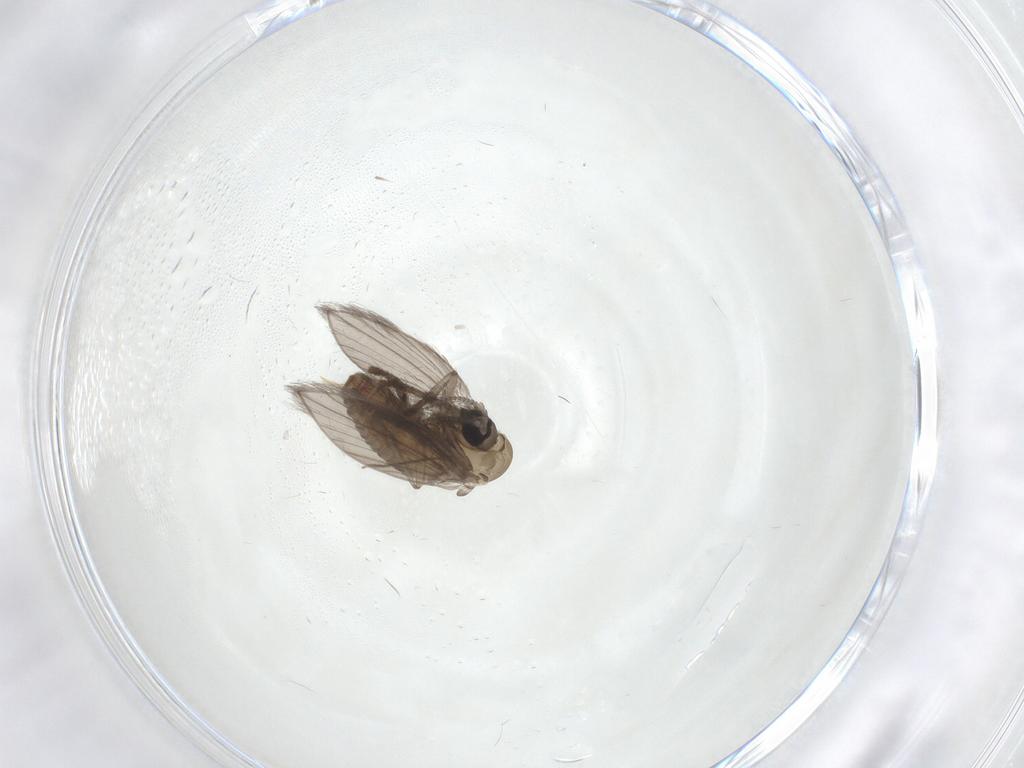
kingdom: Animalia
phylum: Arthropoda
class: Insecta
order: Diptera
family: Psychodidae
